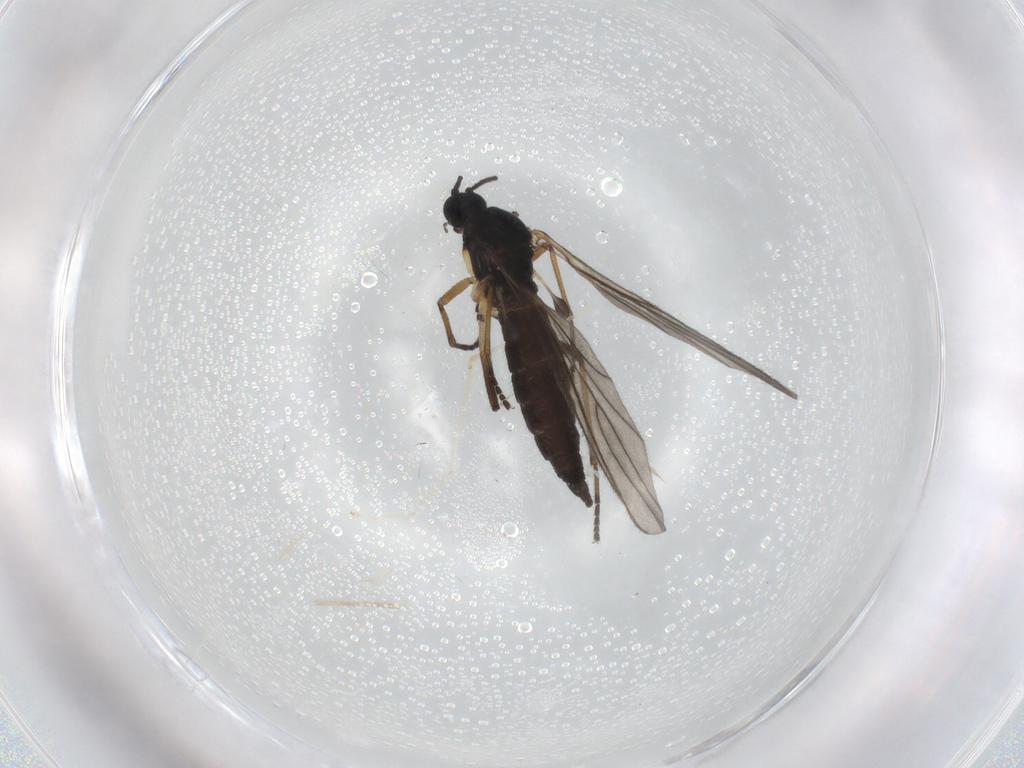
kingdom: Animalia
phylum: Arthropoda
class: Insecta
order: Diptera
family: Sciaridae
